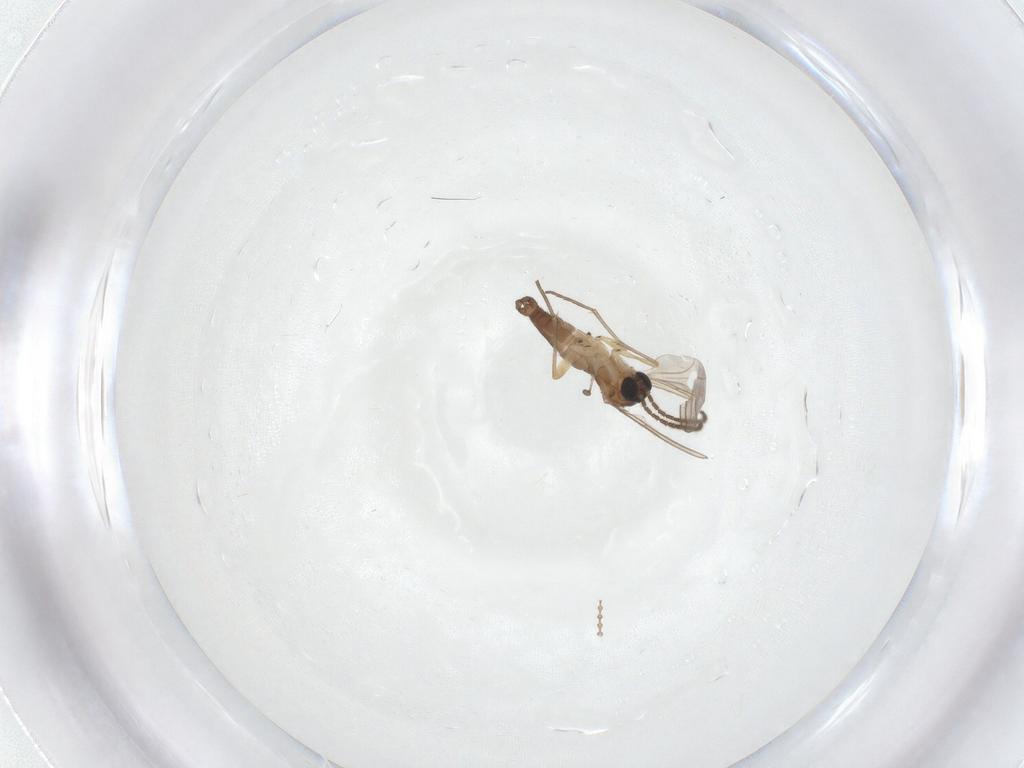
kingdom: Animalia
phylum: Arthropoda
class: Insecta
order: Diptera
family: Sciaridae
